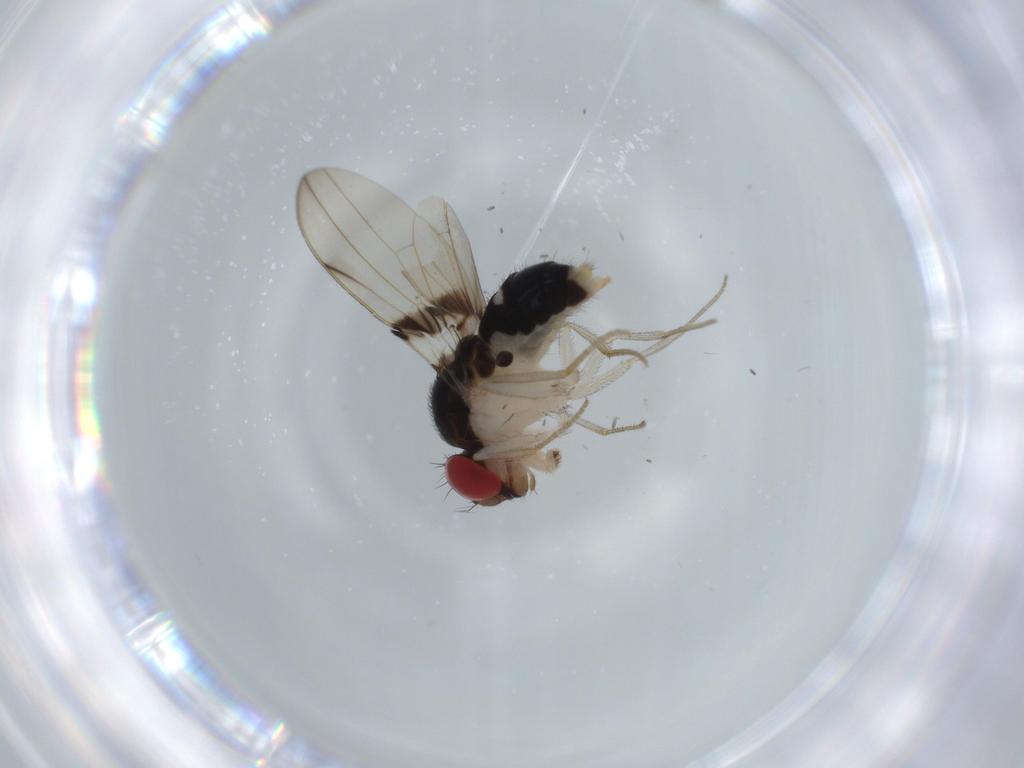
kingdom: Animalia
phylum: Arthropoda
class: Insecta
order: Diptera
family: Drosophilidae
